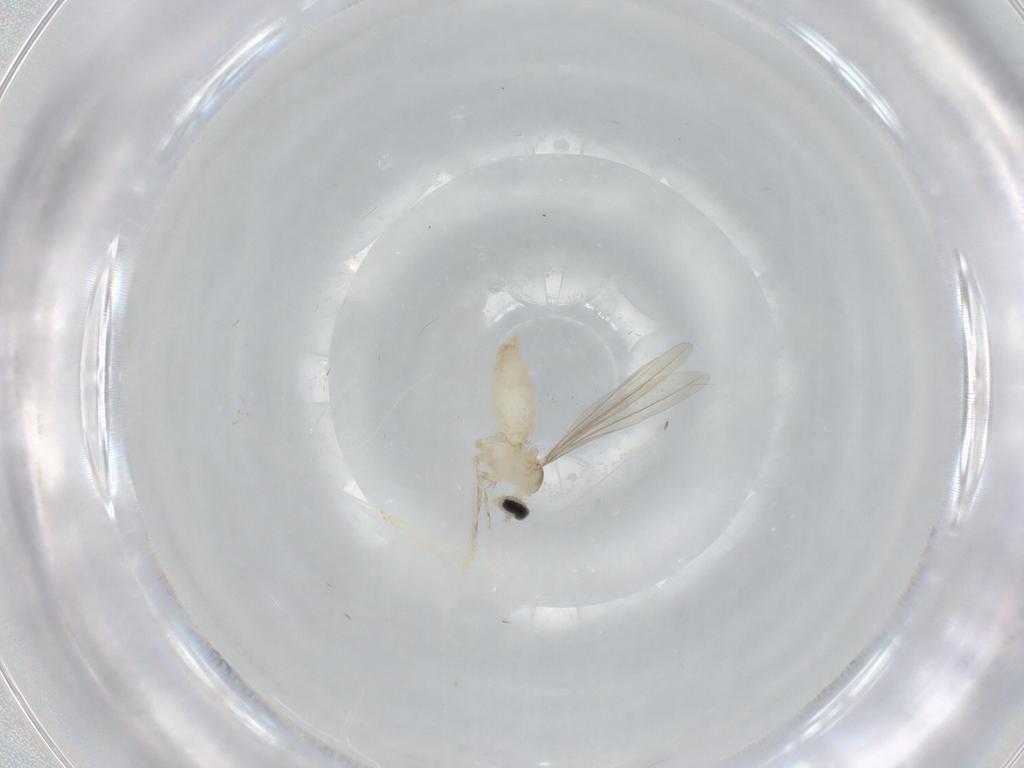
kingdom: Animalia
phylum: Arthropoda
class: Insecta
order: Diptera
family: Cecidomyiidae
